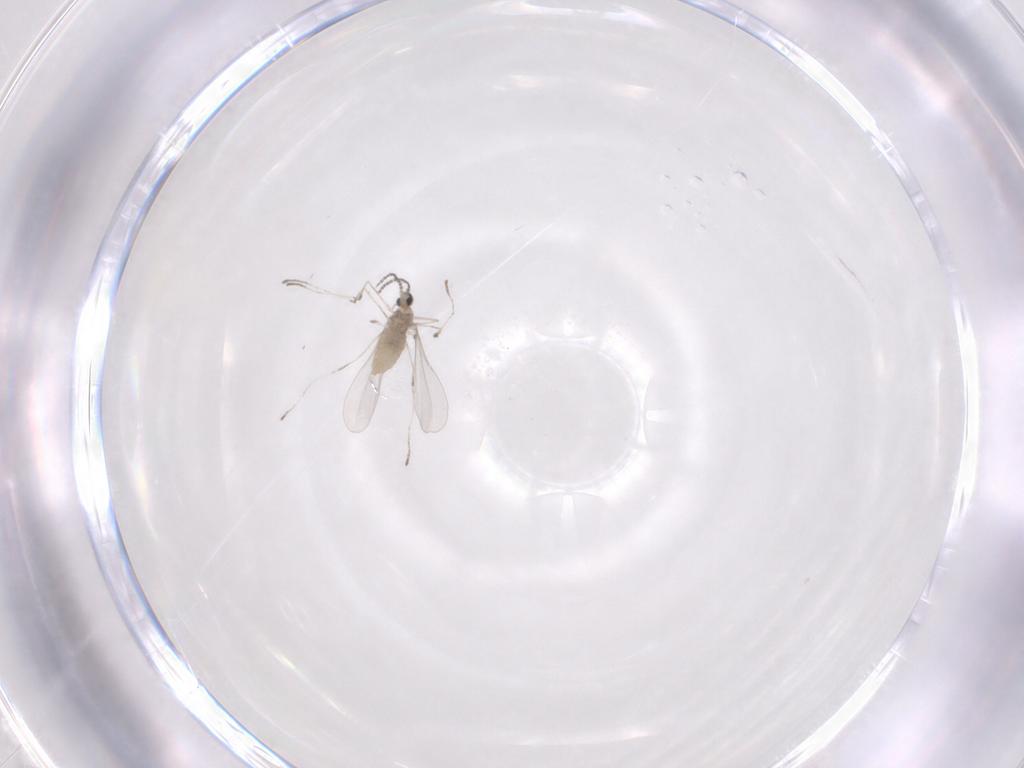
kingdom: Animalia
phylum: Arthropoda
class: Insecta
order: Diptera
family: Cecidomyiidae
